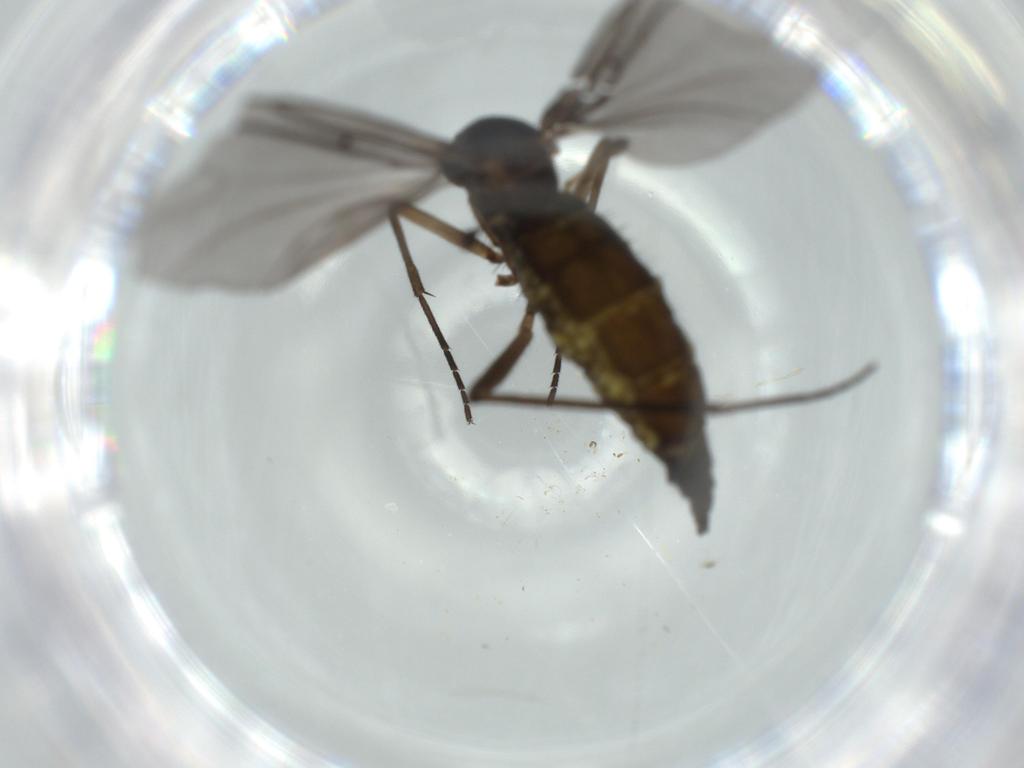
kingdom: Animalia
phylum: Arthropoda
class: Insecta
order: Diptera
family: Sciaridae
